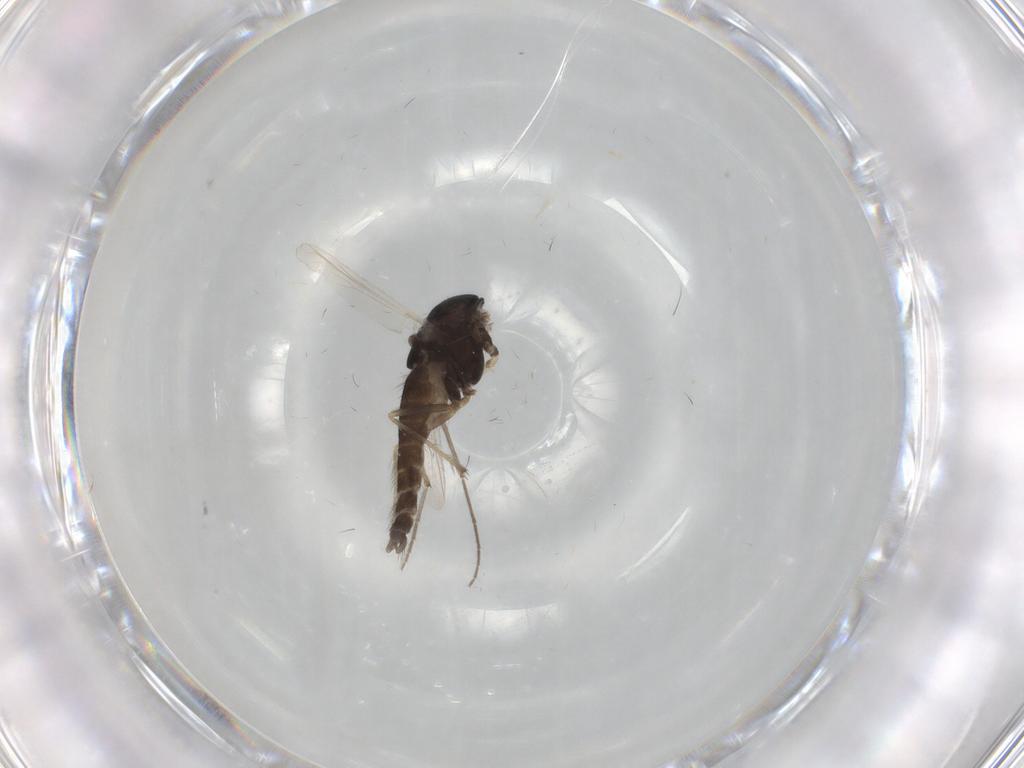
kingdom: Animalia
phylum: Arthropoda
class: Insecta
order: Diptera
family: Chironomidae
